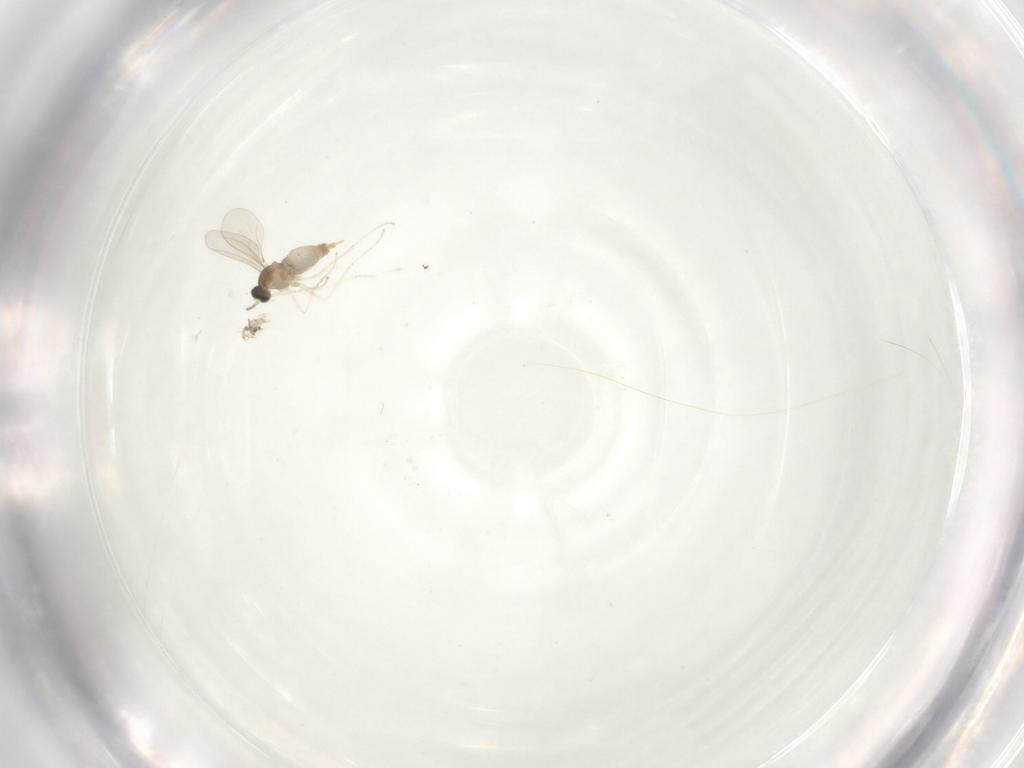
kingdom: Animalia
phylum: Arthropoda
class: Insecta
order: Diptera
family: Cecidomyiidae
